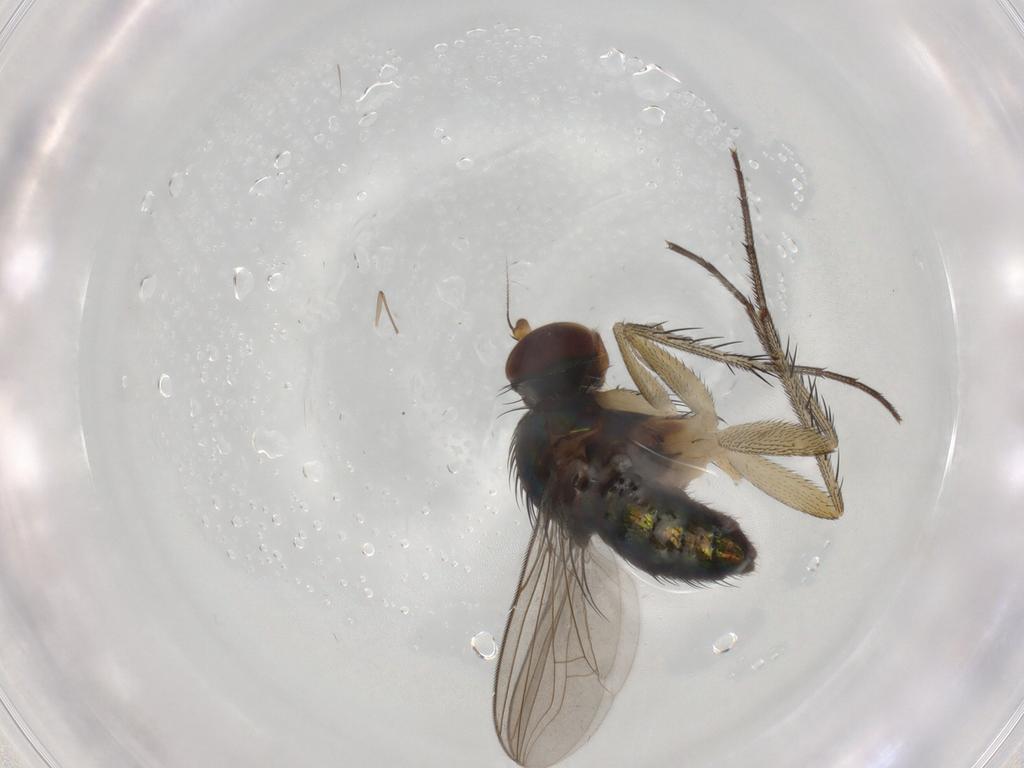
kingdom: Animalia
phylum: Arthropoda
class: Insecta
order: Diptera
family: Dolichopodidae
